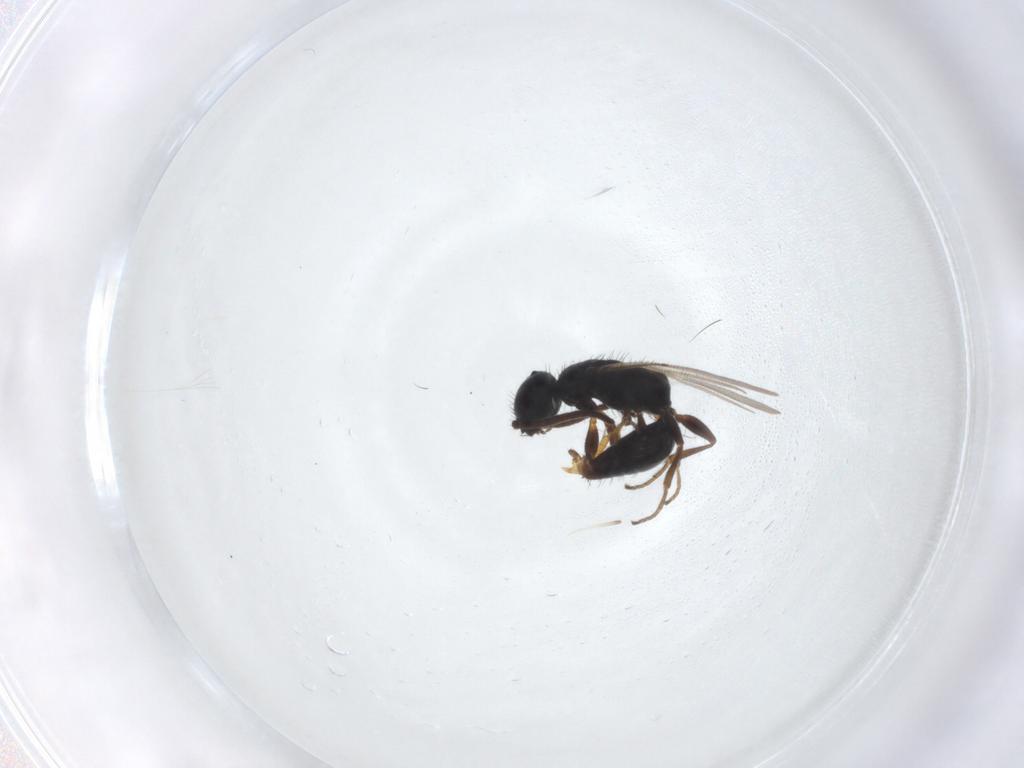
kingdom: Animalia
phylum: Arthropoda
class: Insecta
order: Hymenoptera
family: Bethylidae
